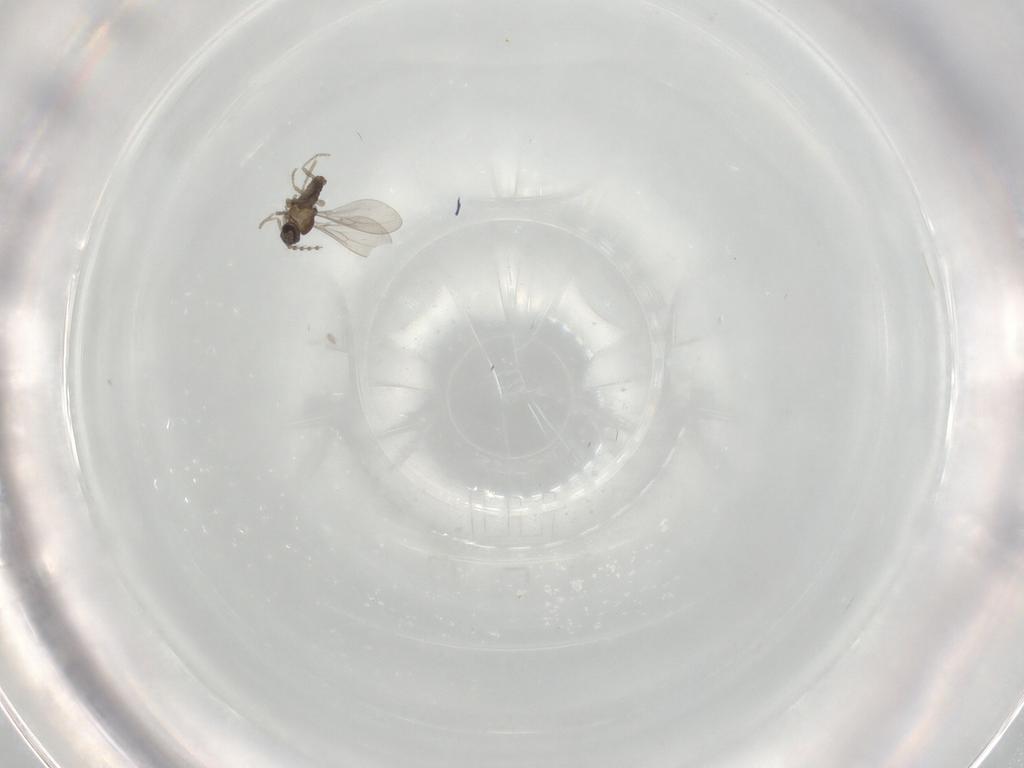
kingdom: Animalia
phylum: Arthropoda
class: Insecta
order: Diptera
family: Cecidomyiidae
